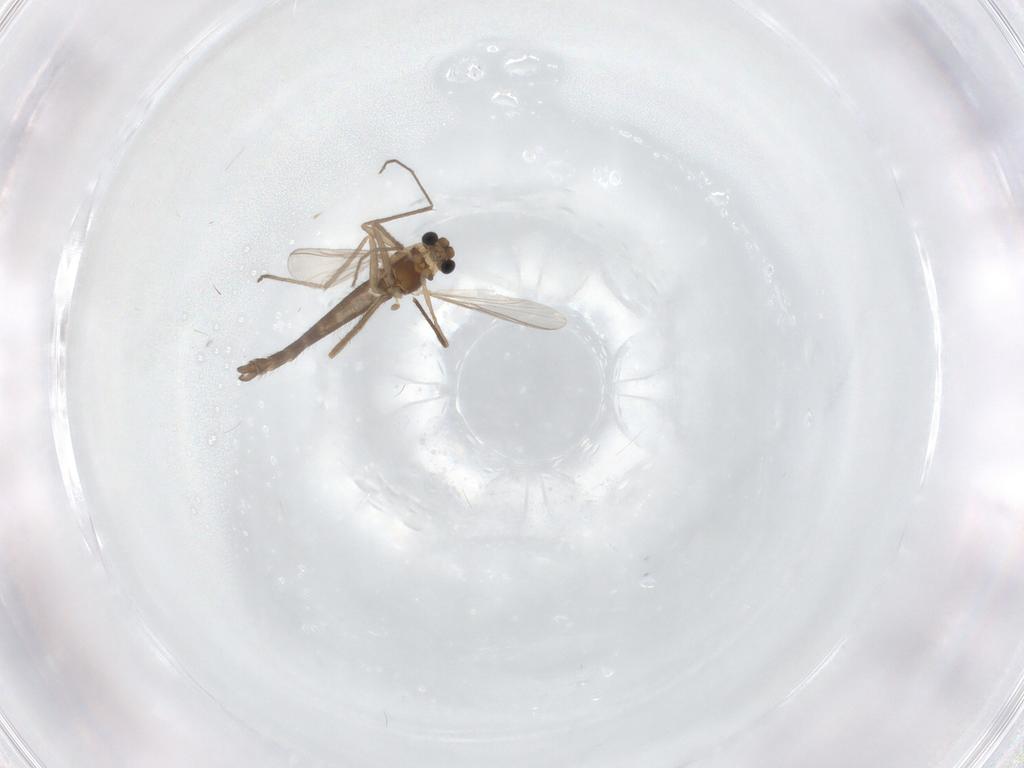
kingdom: Animalia
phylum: Arthropoda
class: Insecta
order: Diptera
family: Chironomidae
